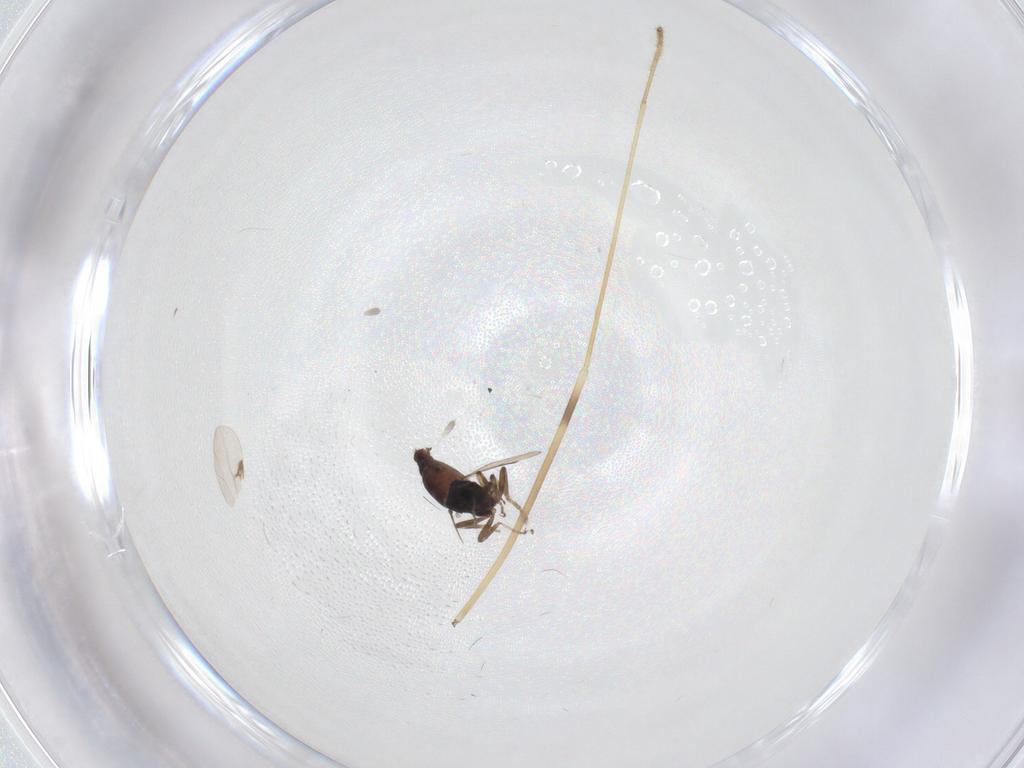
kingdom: Animalia
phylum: Arthropoda
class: Insecta
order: Diptera
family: Ceratopogonidae
